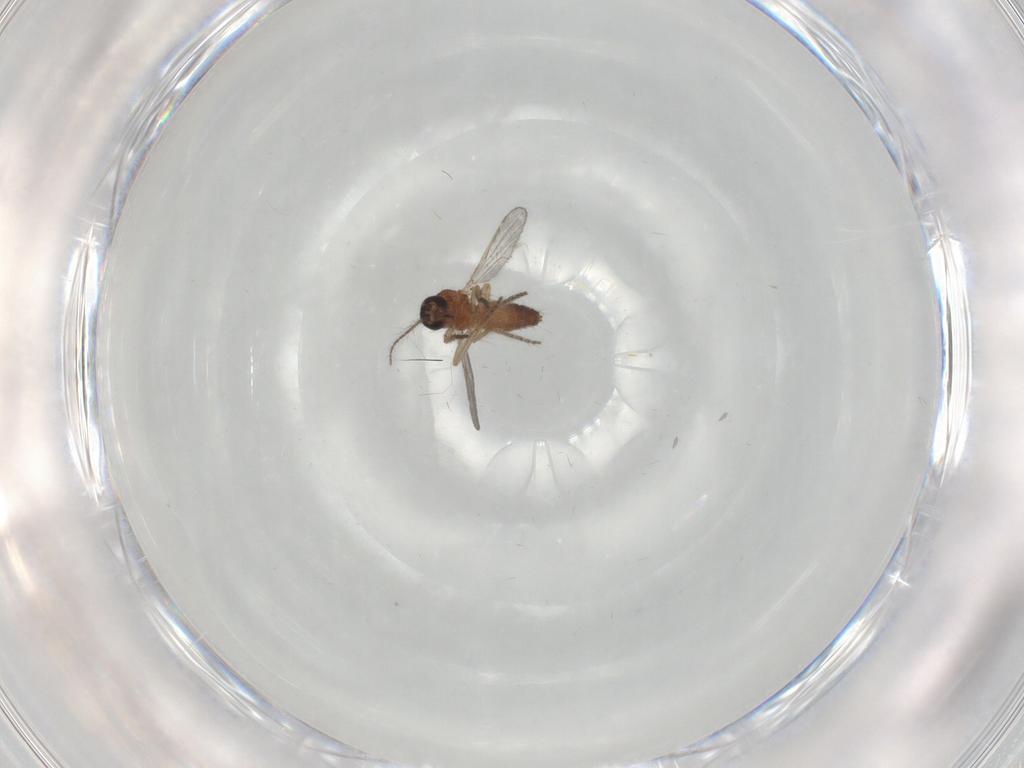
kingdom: Animalia
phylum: Arthropoda
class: Insecta
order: Diptera
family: Ceratopogonidae
